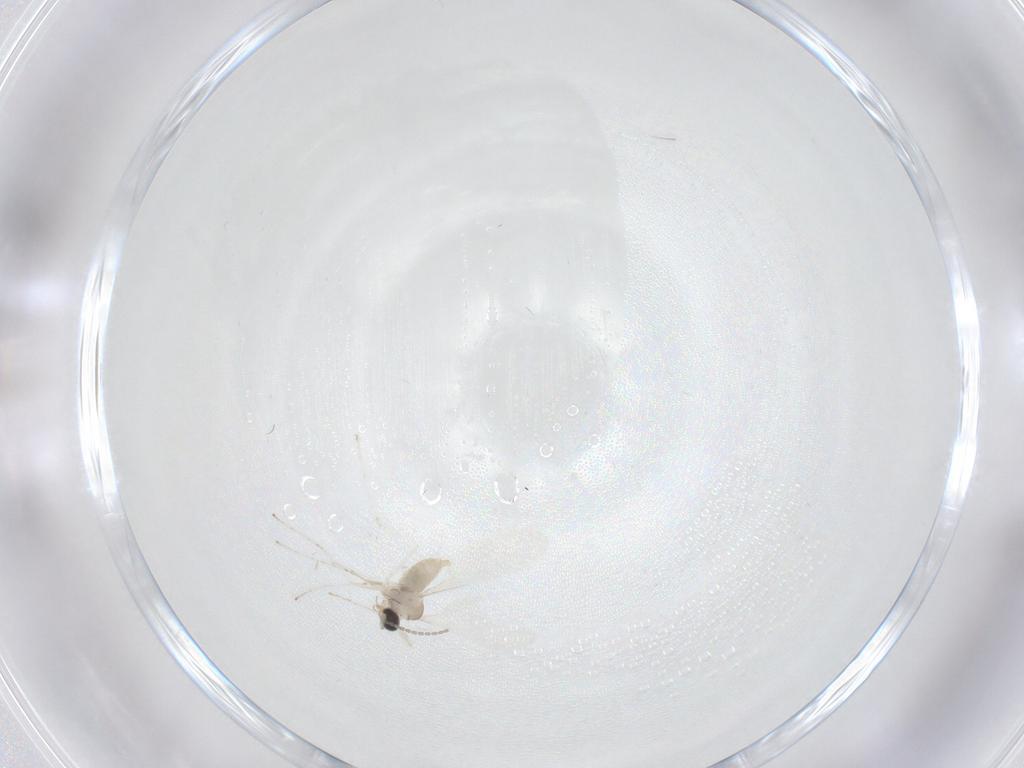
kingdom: Animalia
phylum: Arthropoda
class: Insecta
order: Diptera
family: Cecidomyiidae
